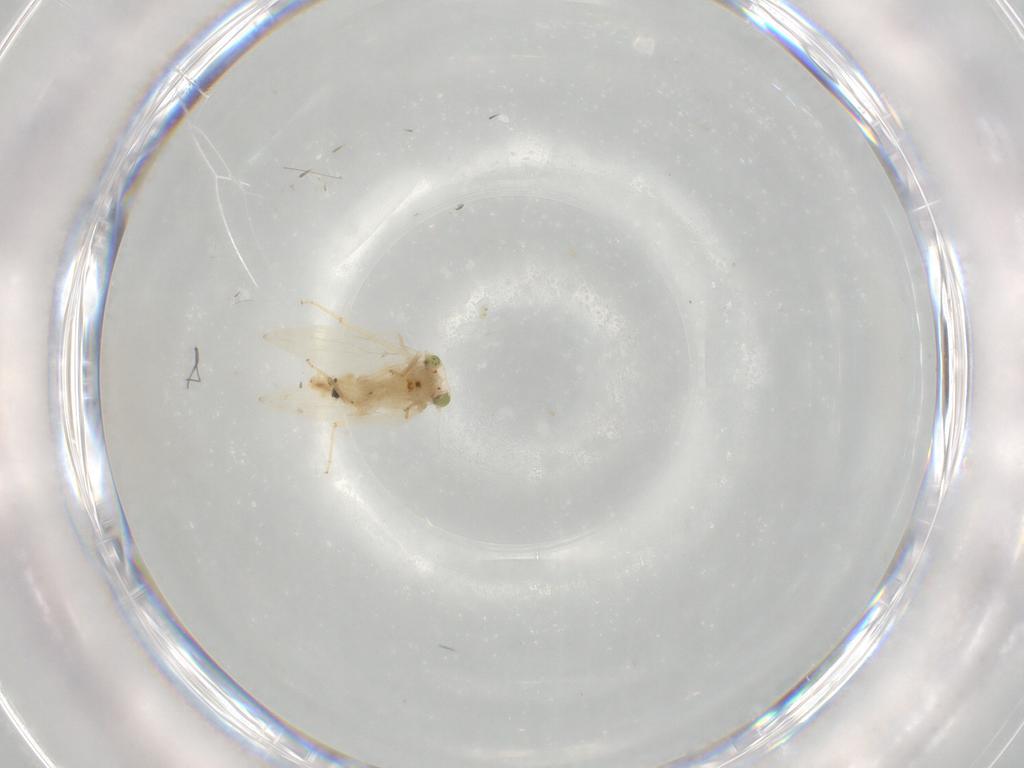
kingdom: Animalia
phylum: Arthropoda
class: Insecta
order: Psocodea
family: Lepidopsocidae
